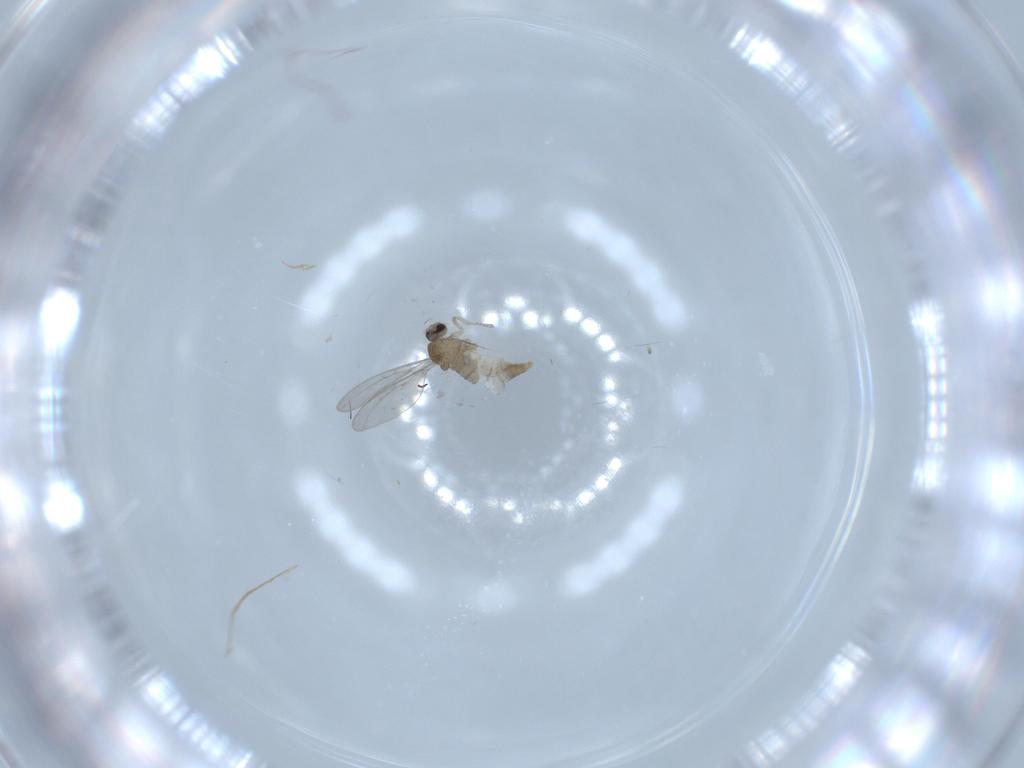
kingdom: Animalia
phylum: Arthropoda
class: Insecta
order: Diptera
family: Cecidomyiidae
